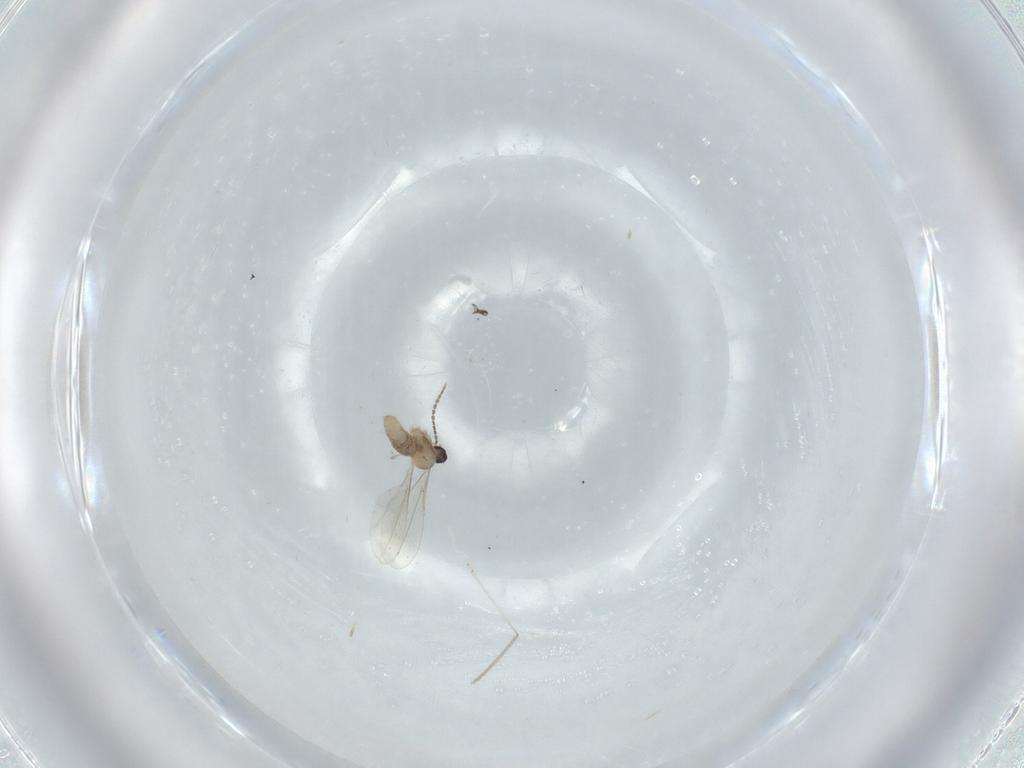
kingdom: Animalia
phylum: Arthropoda
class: Insecta
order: Diptera
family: Cecidomyiidae
